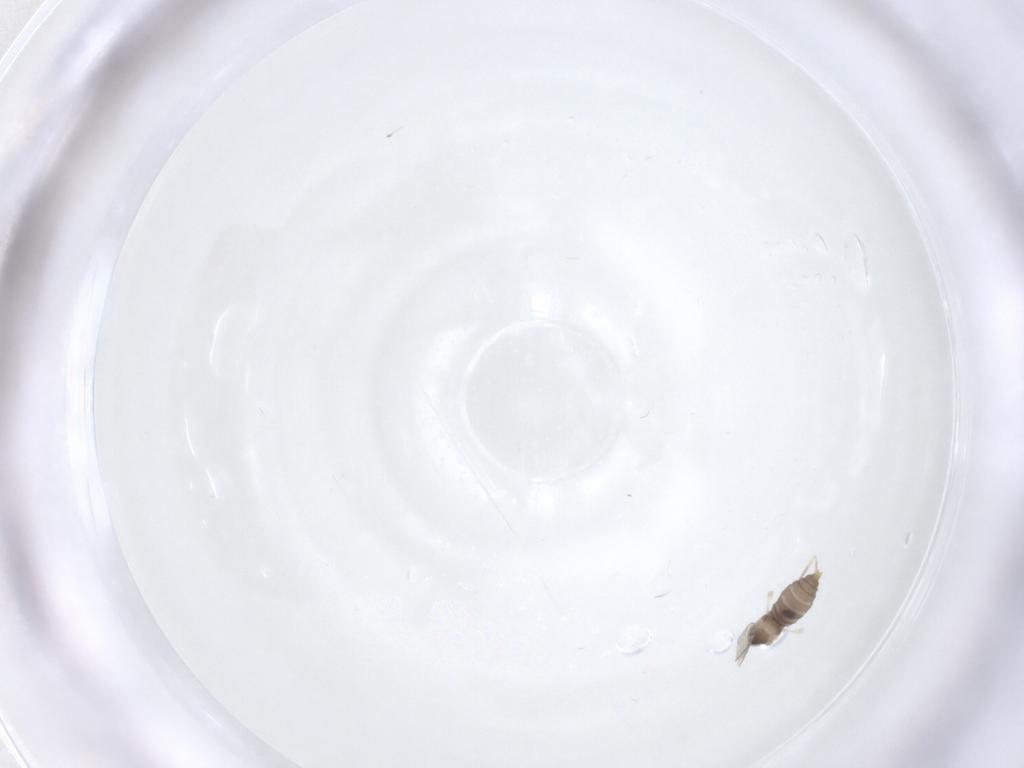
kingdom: Animalia
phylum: Arthropoda
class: Insecta
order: Diptera
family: Cecidomyiidae
